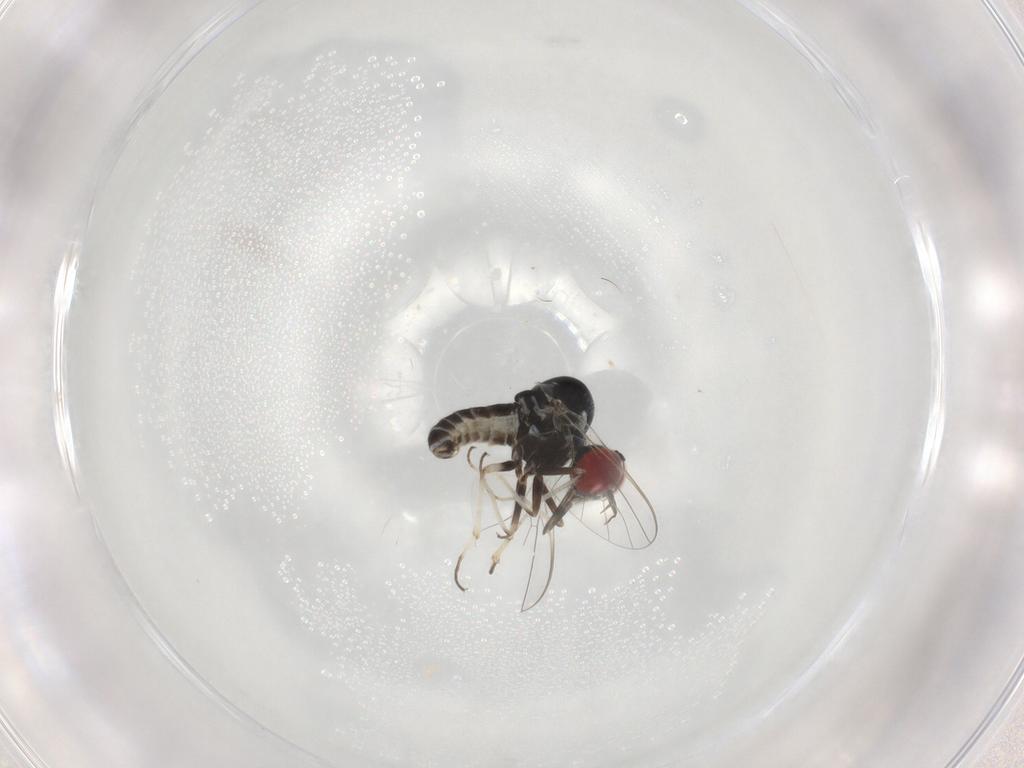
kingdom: Animalia
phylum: Arthropoda
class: Insecta
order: Diptera
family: Mythicomyiidae
